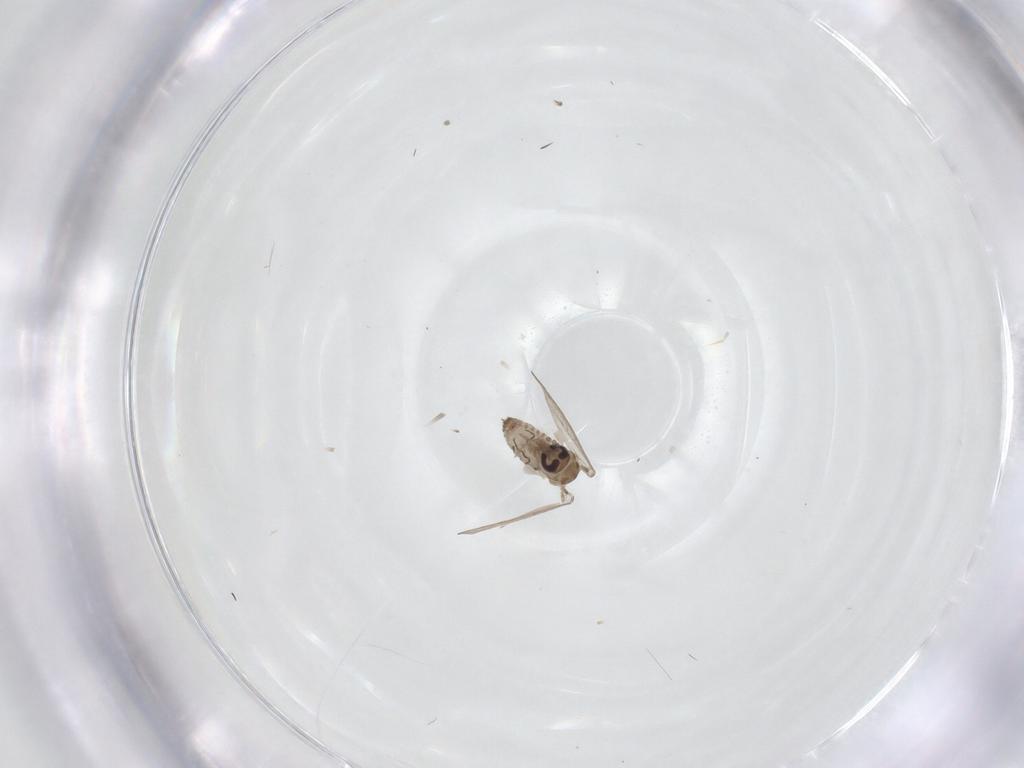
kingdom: Animalia
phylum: Arthropoda
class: Insecta
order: Diptera
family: Psychodidae
